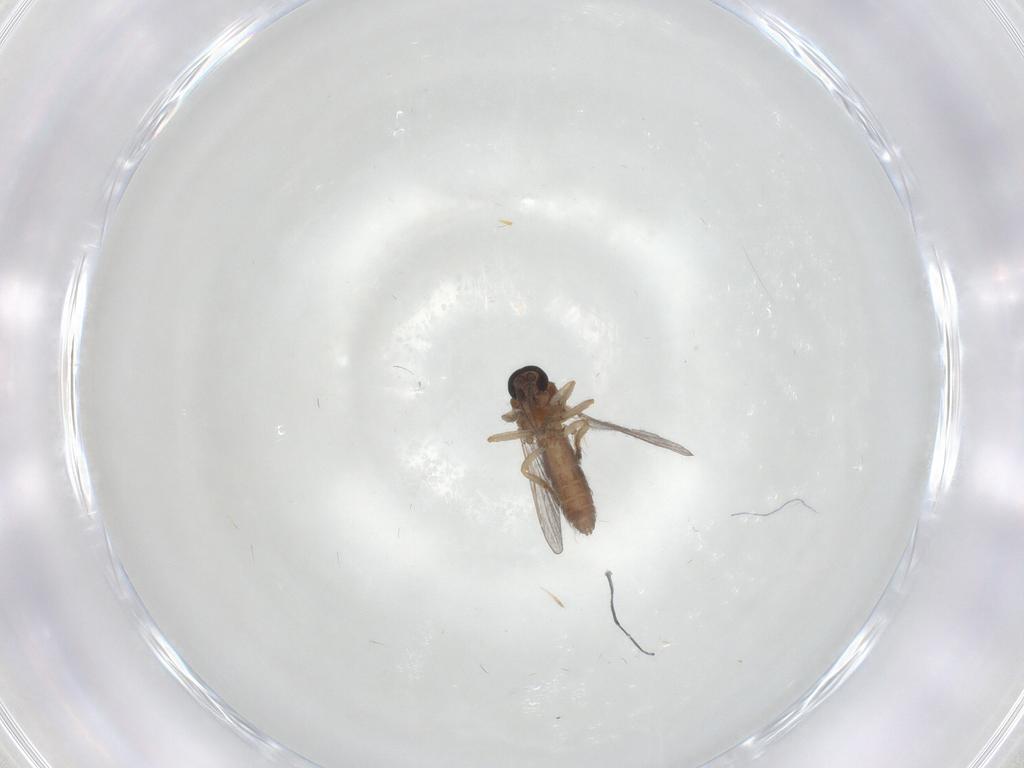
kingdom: Animalia
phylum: Arthropoda
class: Insecta
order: Diptera
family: Ceratopogonidae
